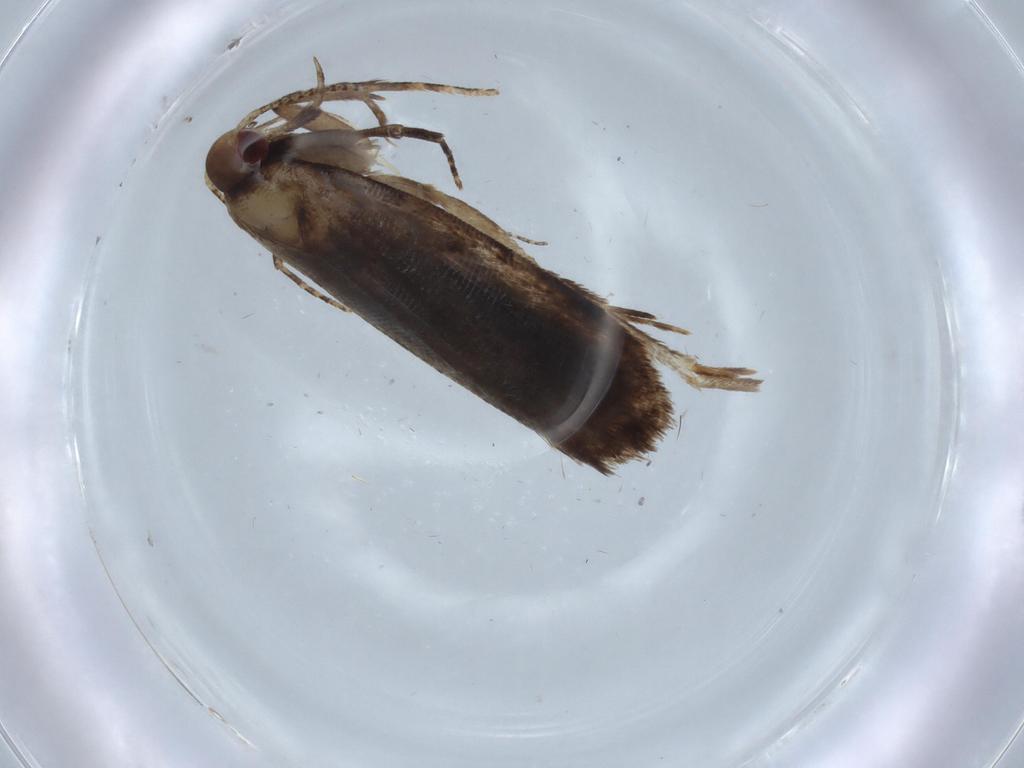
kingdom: Animalia
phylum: Arthropoda
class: Insecta
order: Lepidoptera
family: Gelechiidae
